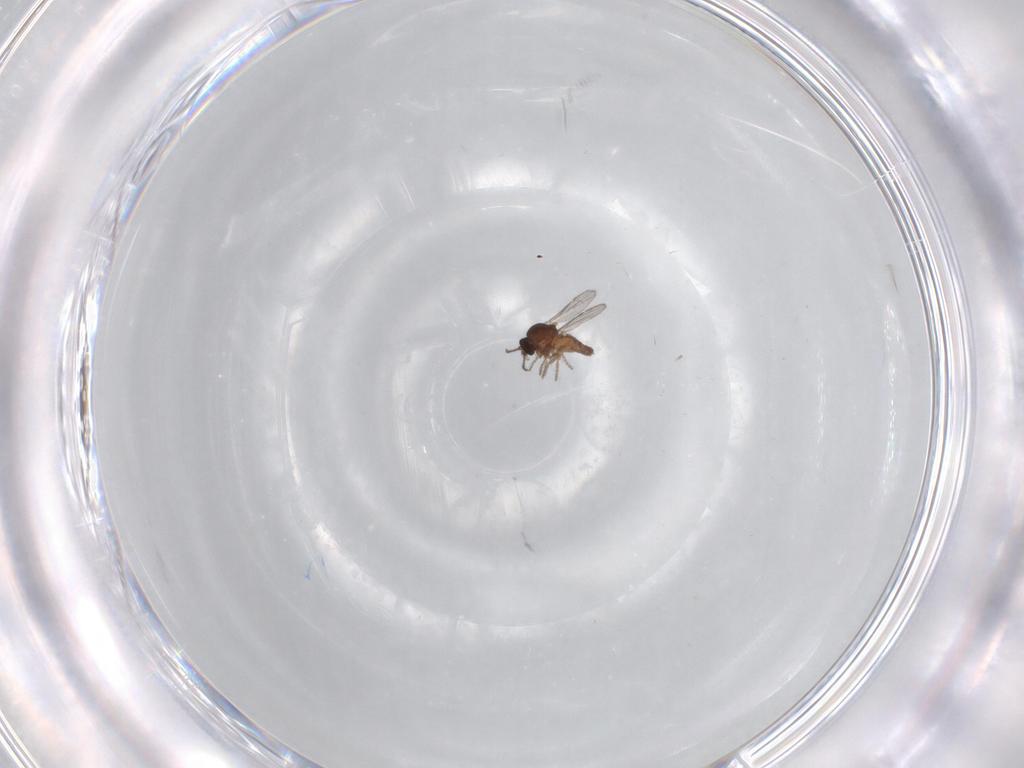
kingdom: Animalia
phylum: Arthropoda
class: Insecta
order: Diptera
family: Ceratopogonidae
